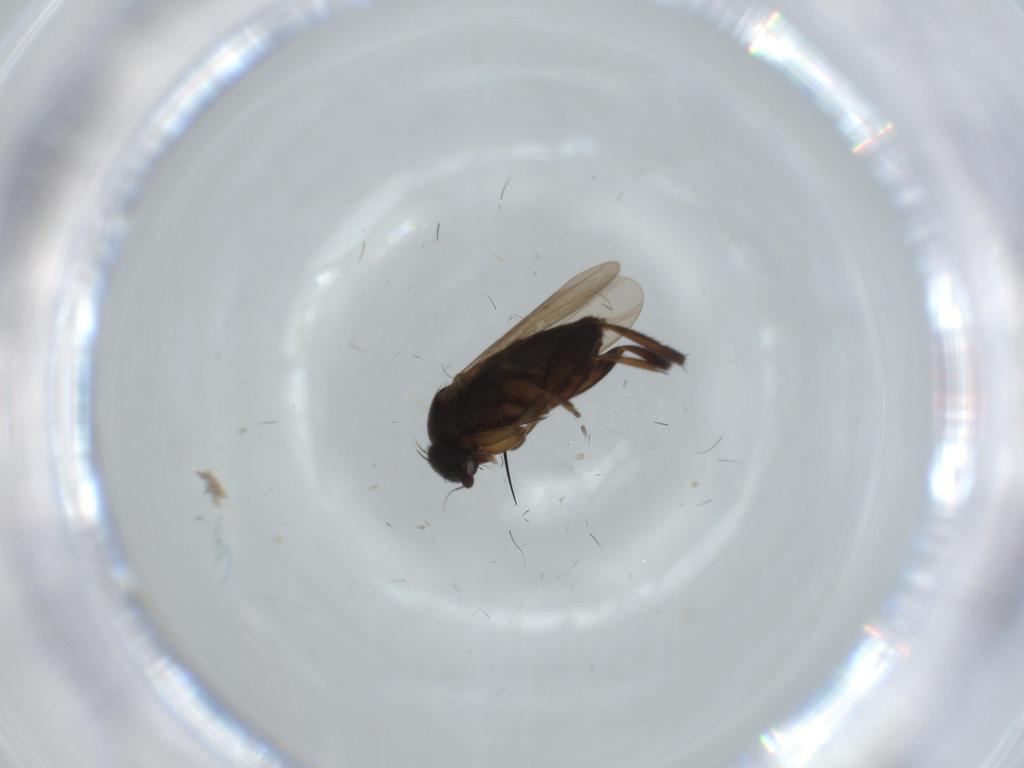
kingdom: Animalia
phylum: Arthropoda
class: Insecta
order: Diptera
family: Phoridae
